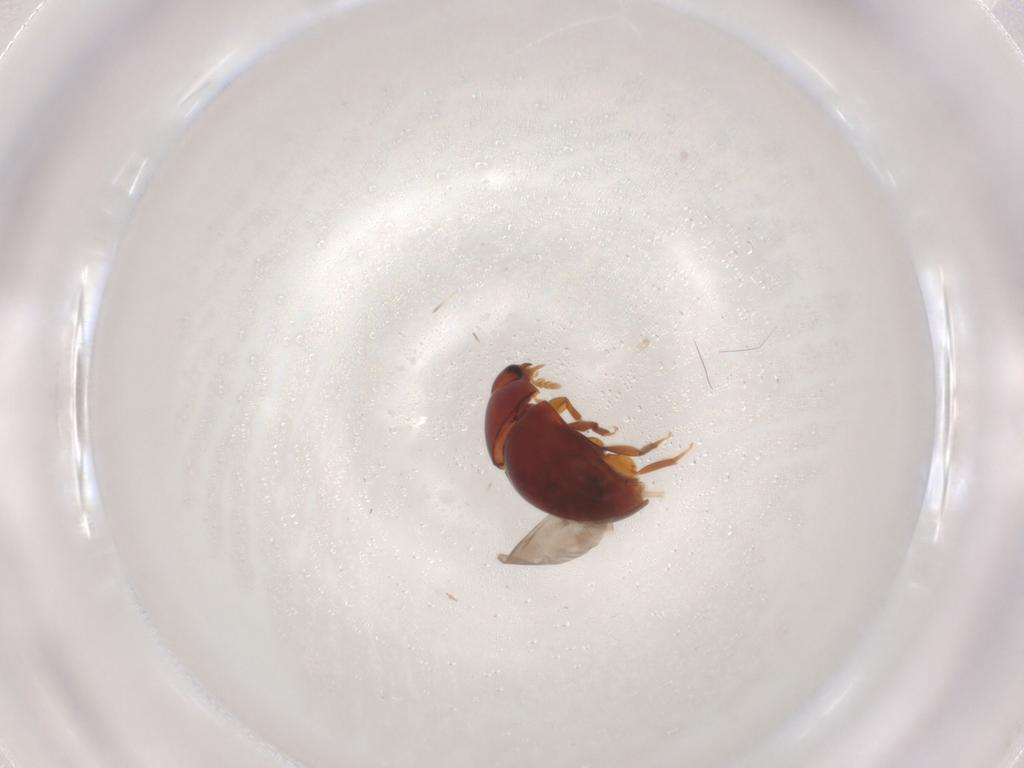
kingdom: Animalia
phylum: Arthropoda
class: Insecta
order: Coleoptera
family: Phalacridae
